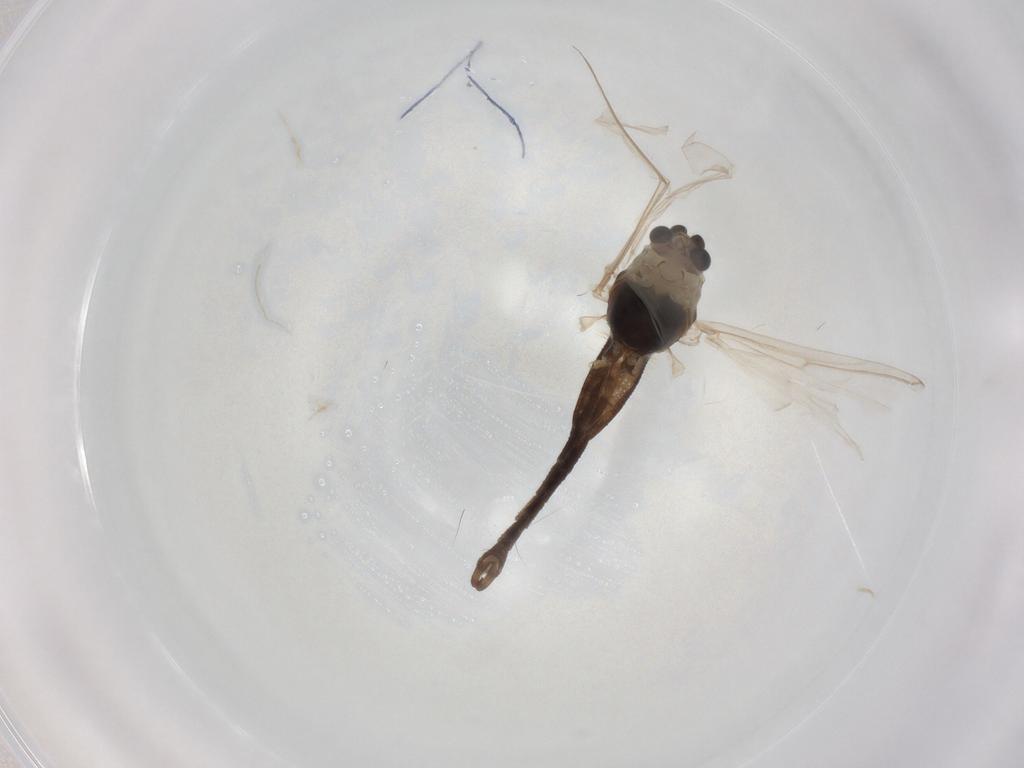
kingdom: Animalia
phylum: Arthropoda
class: Insecta
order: Diptera
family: Chironomidae
